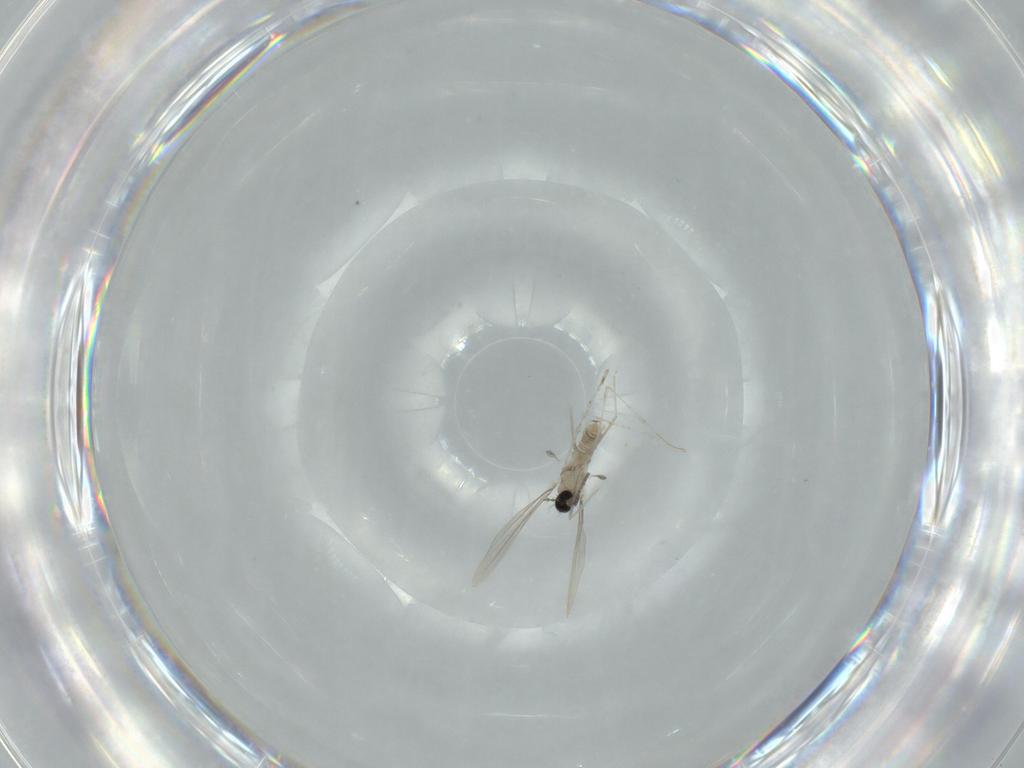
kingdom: Animalia
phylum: Arthropoda
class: Insecta
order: Diptera
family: Cecidomyiidae
